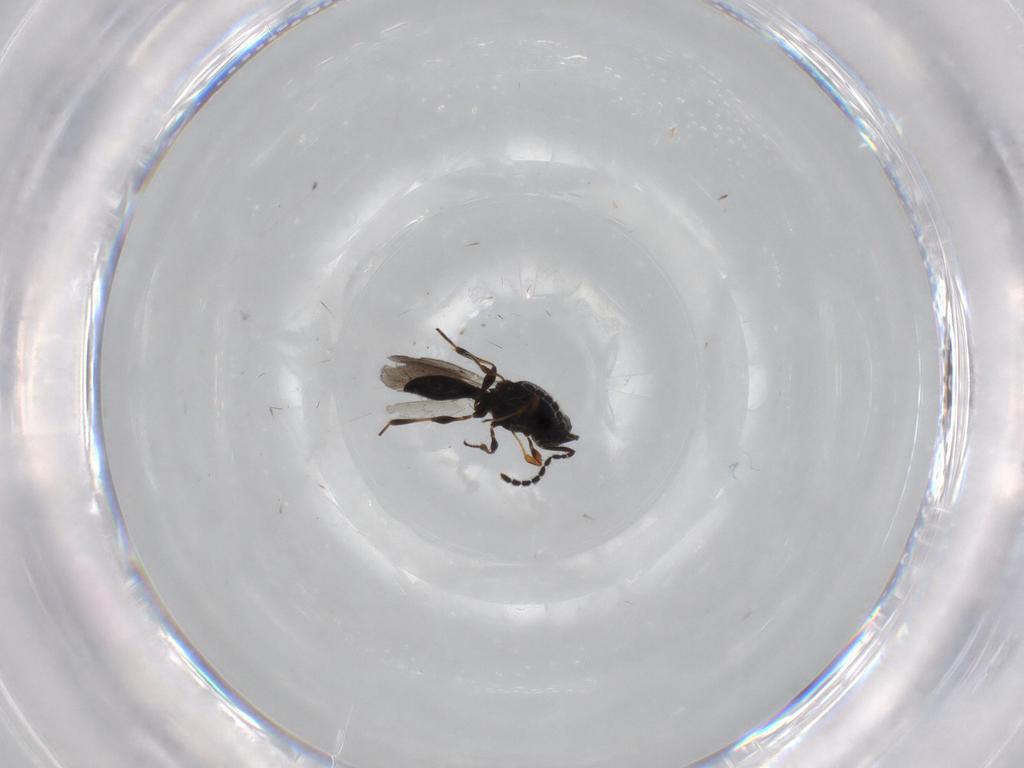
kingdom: Animalia
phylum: Arthropoda
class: Insecta
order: Hymenoptera
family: Platygastridae
